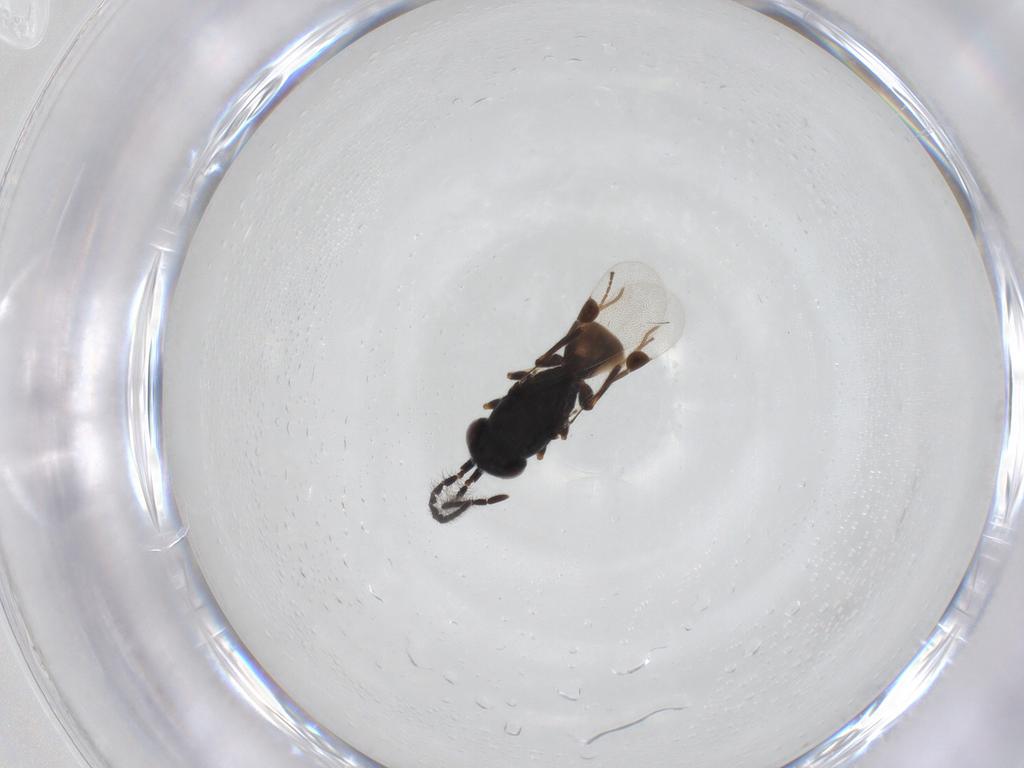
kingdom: Animalia
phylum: Arthropoda
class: Insecta
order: Hymenoptera
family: Megaspilidae
